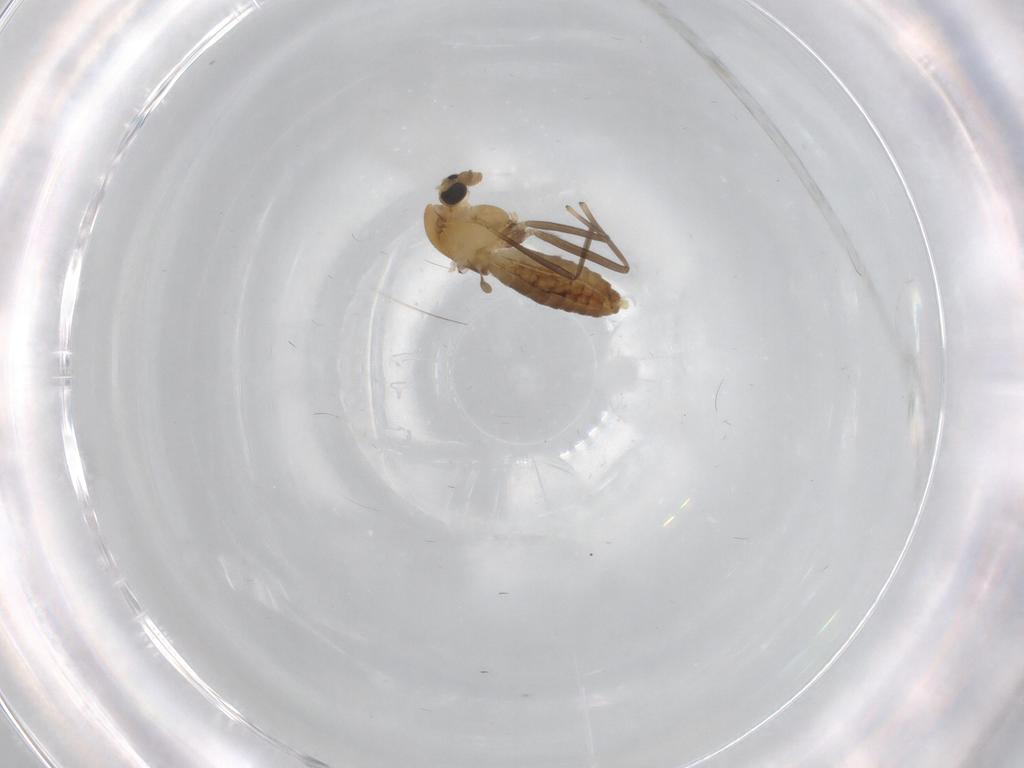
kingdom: Animalia
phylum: Arthropoda
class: Insecta
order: Diptera
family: Chironomidae
